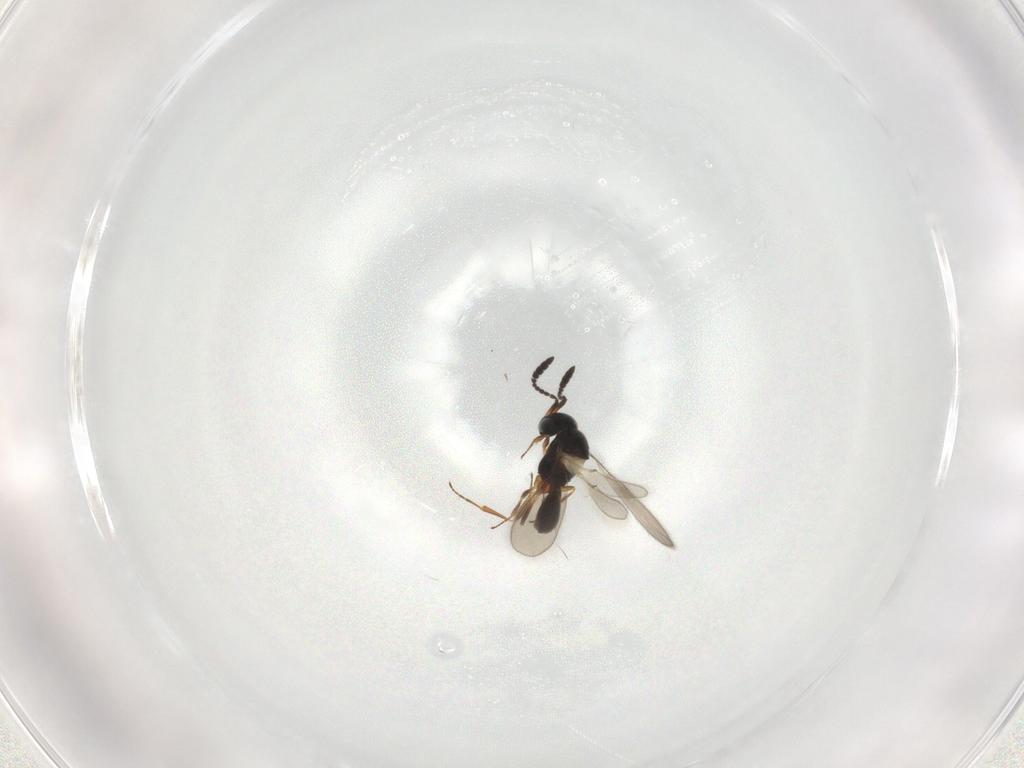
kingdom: Animalia
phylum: Arthropoda
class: Insecta
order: Hymenoptera
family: Scelionidae
